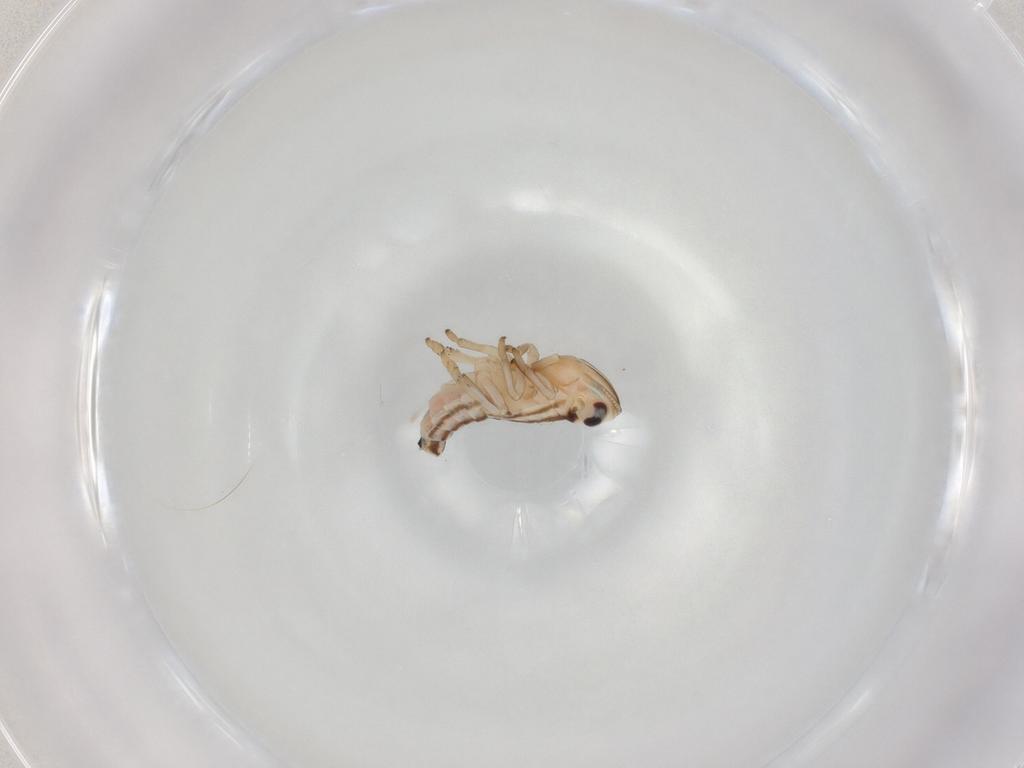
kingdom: Animalia
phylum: Arthropoda
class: Insecta
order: Hemiptera
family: Fulgoroidea_incertae_sedis
